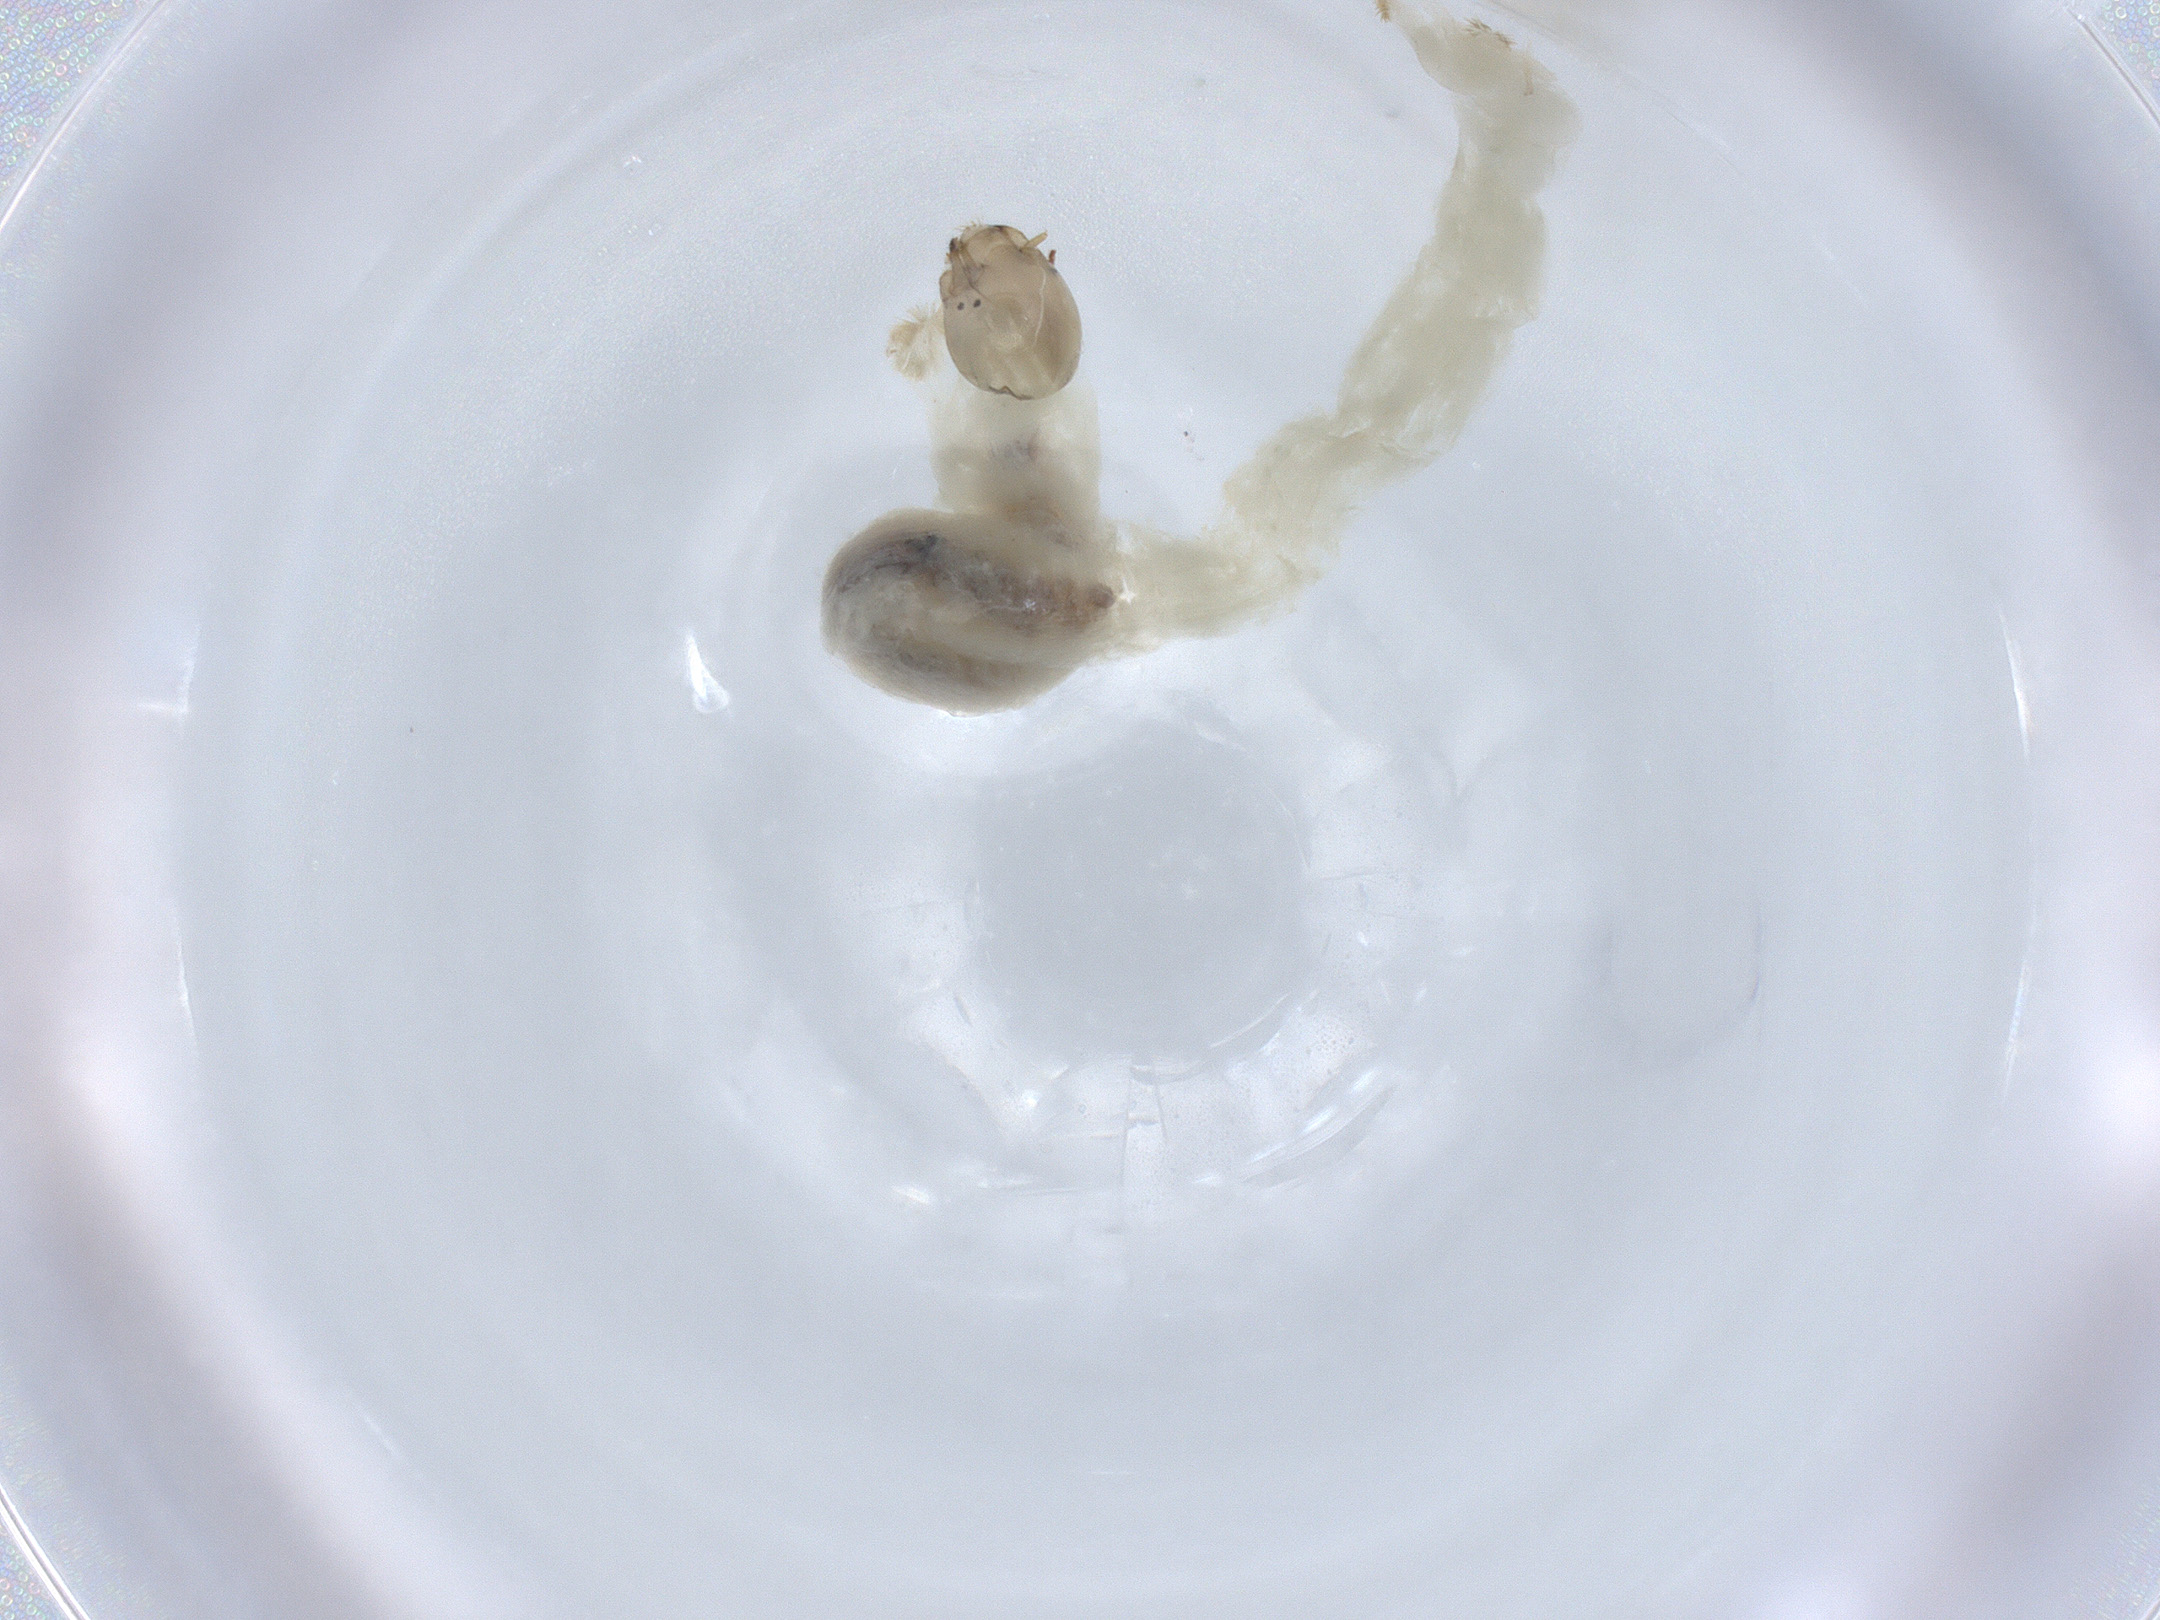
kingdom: Animalia
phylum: Arthropoda
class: Insecta
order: Diptera
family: Chironomidae
